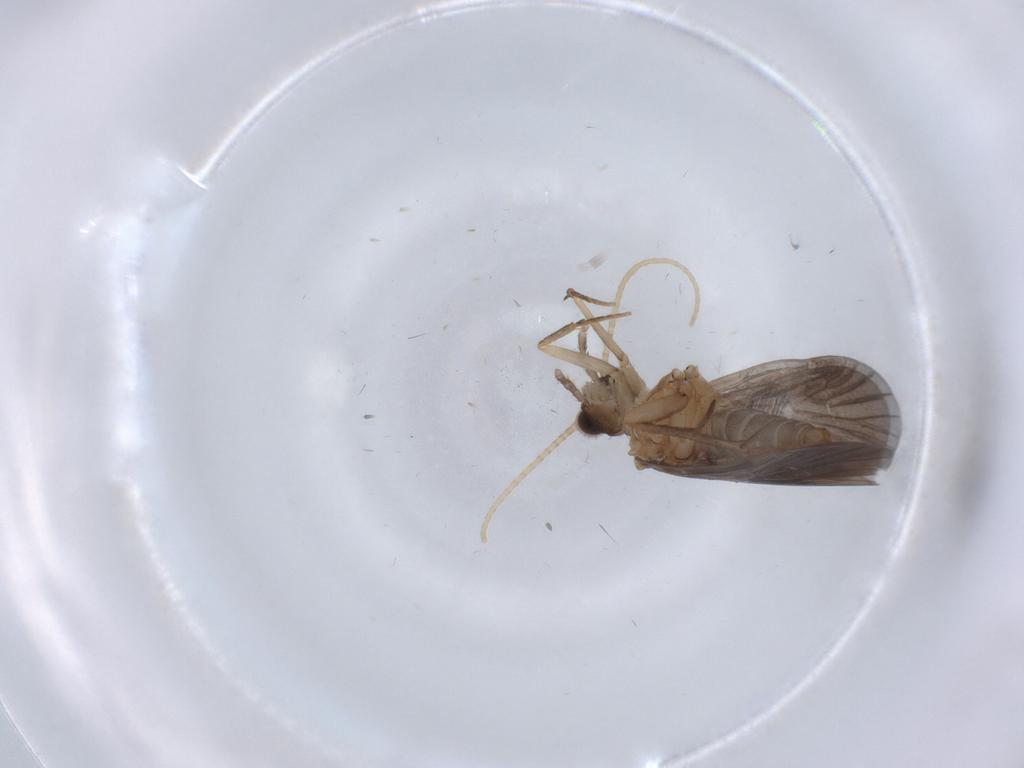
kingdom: Animalia
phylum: Arthropoda
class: Insecta
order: Trichoptera
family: Philopotamidae
